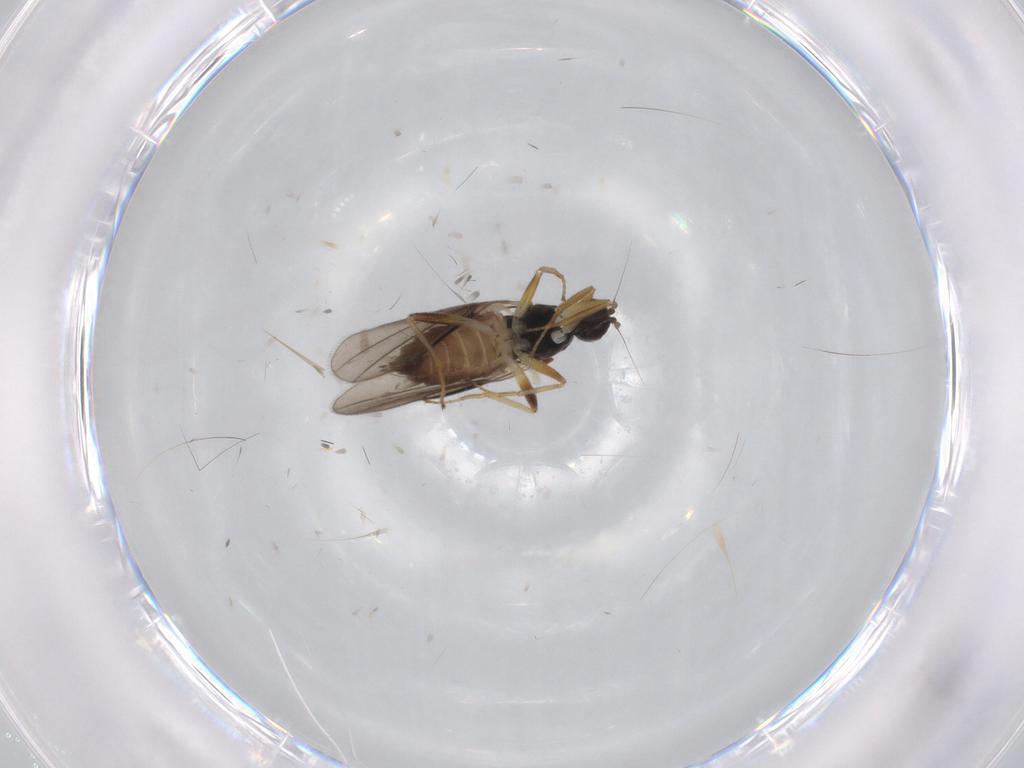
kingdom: Animalia
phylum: Arthropoda
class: Insecta
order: Diptera
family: Hybotidae
